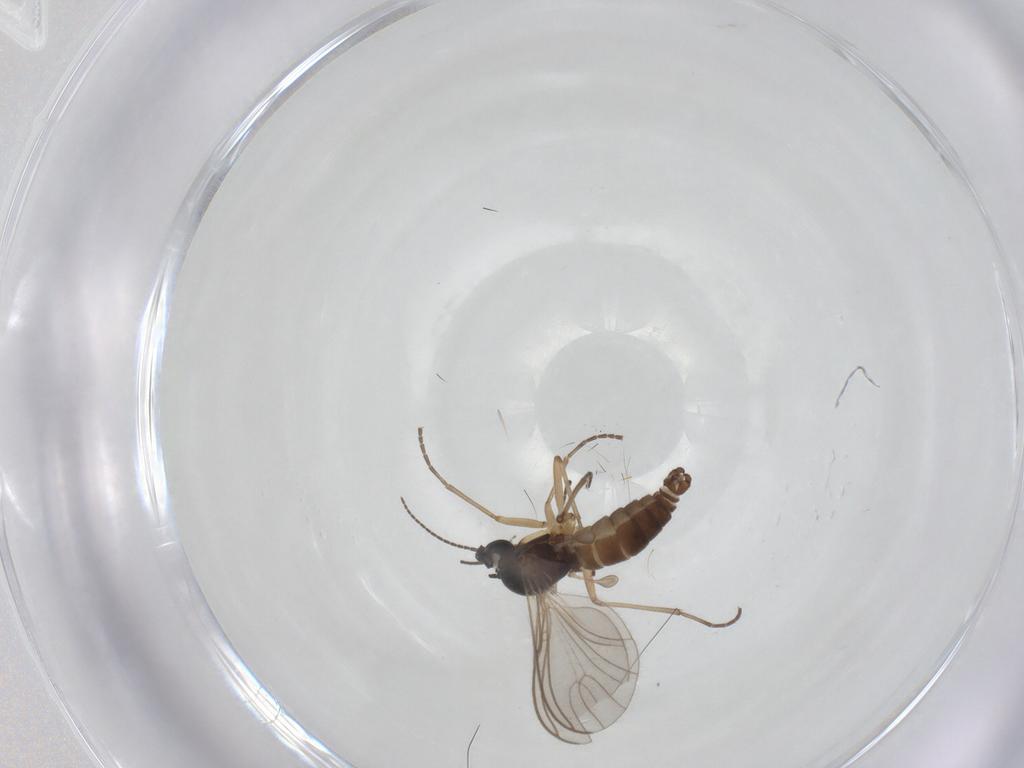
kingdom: Animalia
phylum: Arthropoda
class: Insecta
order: Diptera
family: Sciaridae
